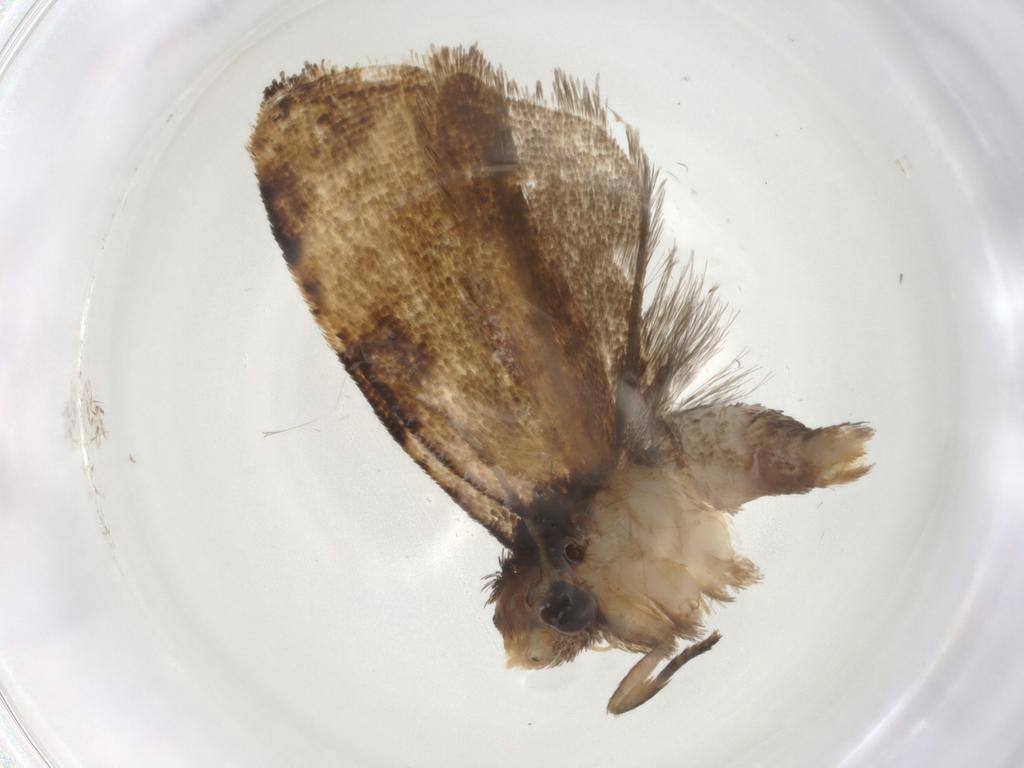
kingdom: Animalia
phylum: Arthropoda
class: Insecta
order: Lepidoptera
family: Tortricidae
